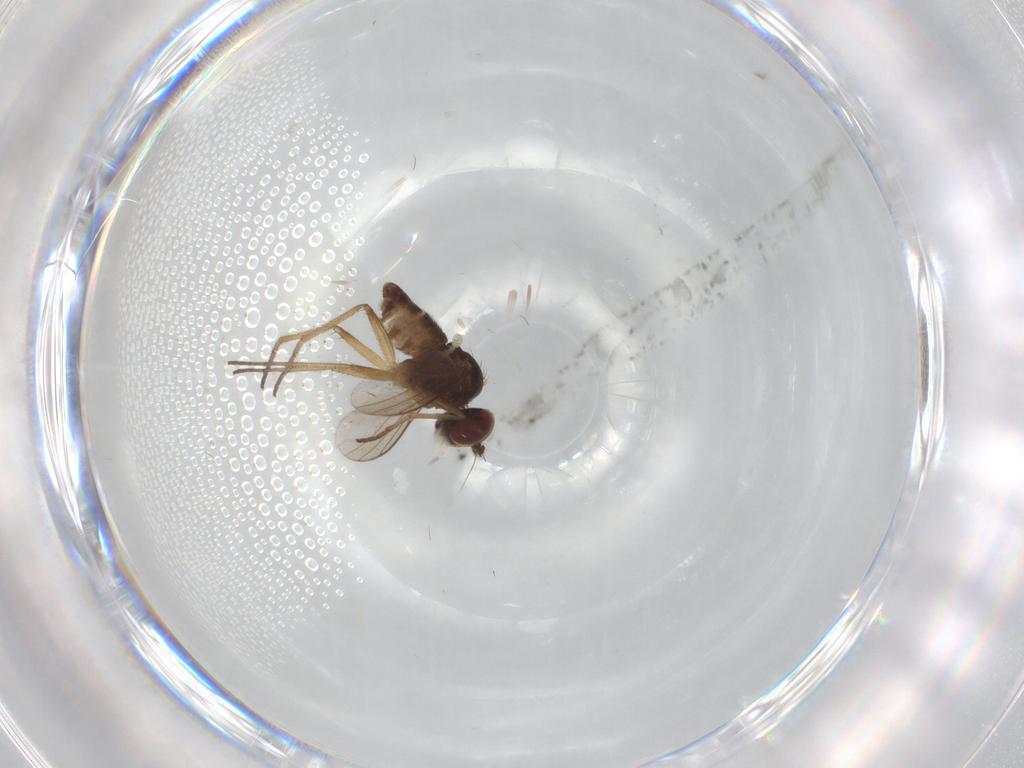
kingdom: Animalia
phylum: Arthropoda
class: Insecta
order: Diptera
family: Dolichopodidae
